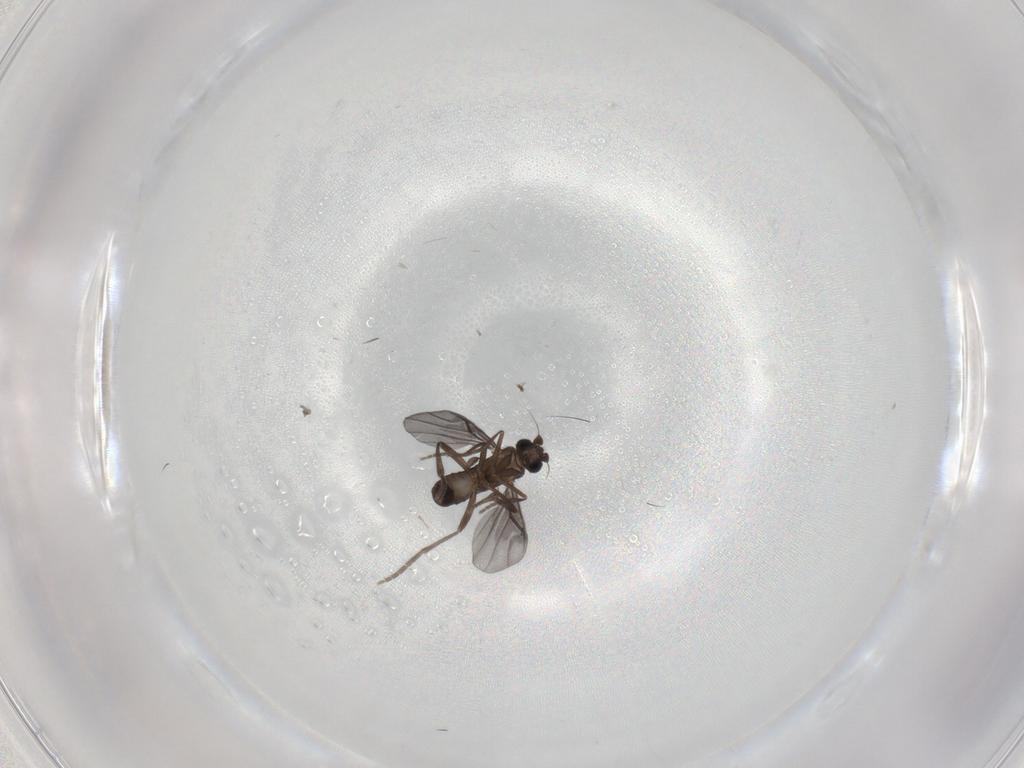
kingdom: Animalia
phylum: Arthropoda
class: Insecta
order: Diptera
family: Phoridae
